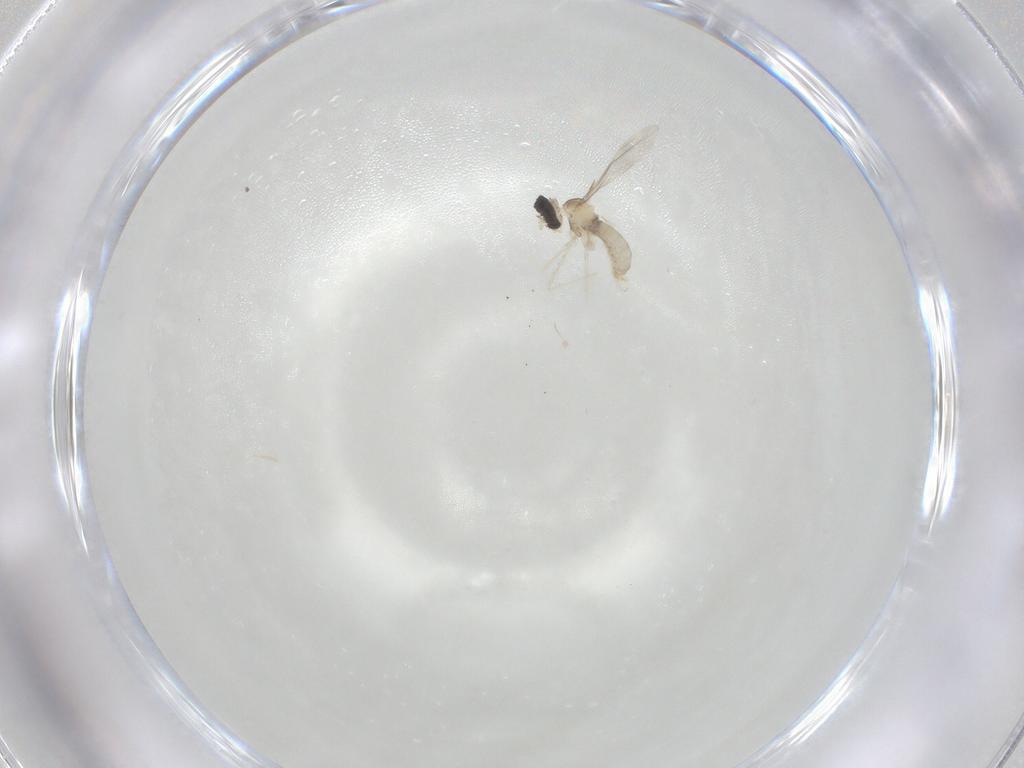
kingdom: Animalia
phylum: Arthropoda
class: Insecta
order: Diptera
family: Cecidomyiidae
